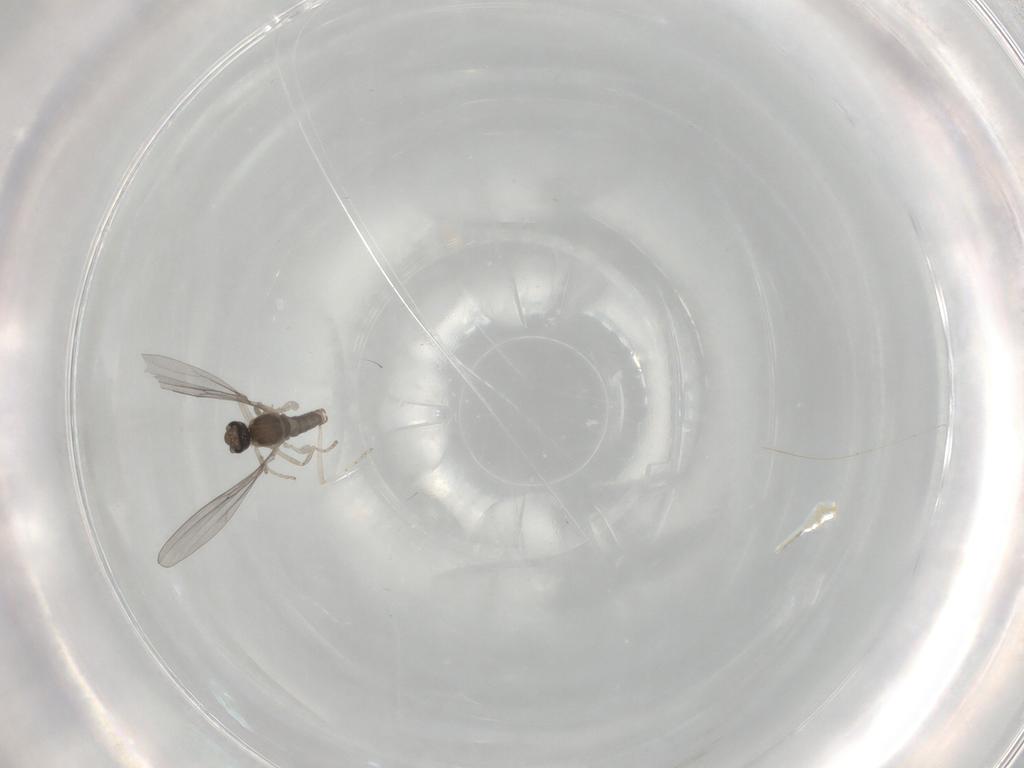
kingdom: Animalia
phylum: Arthropoda
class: Insecta
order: Diptera
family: Cecidomyiidae
